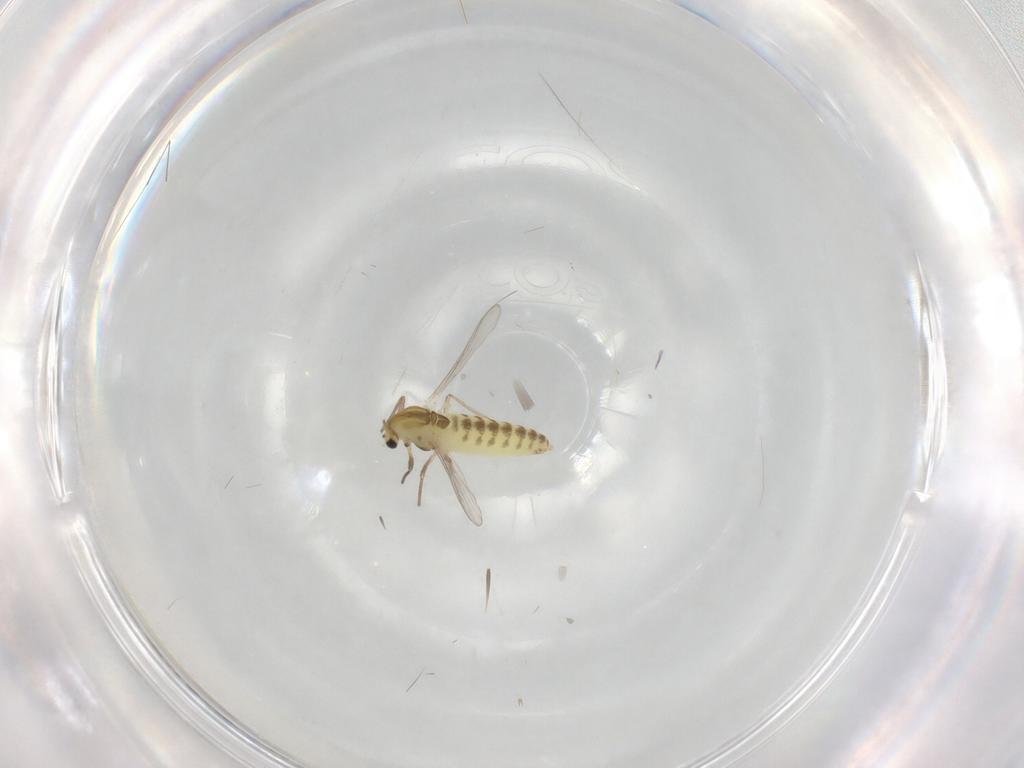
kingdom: Animalia
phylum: Arthropoda
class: Insecta
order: Diptera
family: Chironomidae
